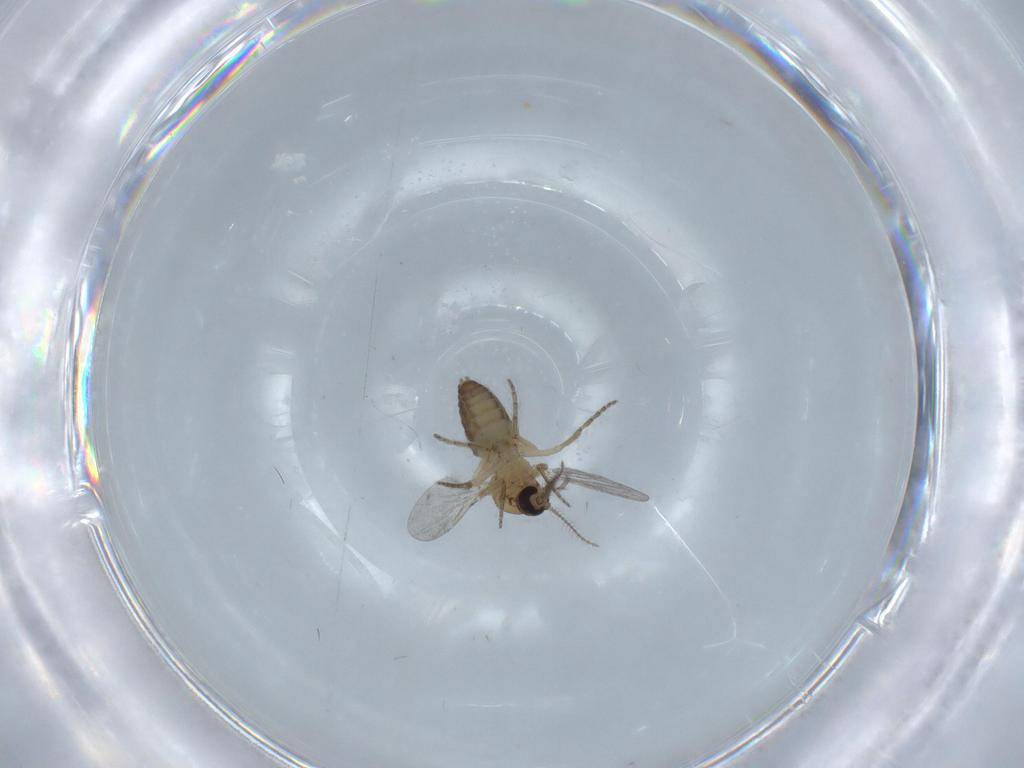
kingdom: Animalia
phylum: Arthropoda
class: Insecta
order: Diptera
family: Ceratopogonidae
